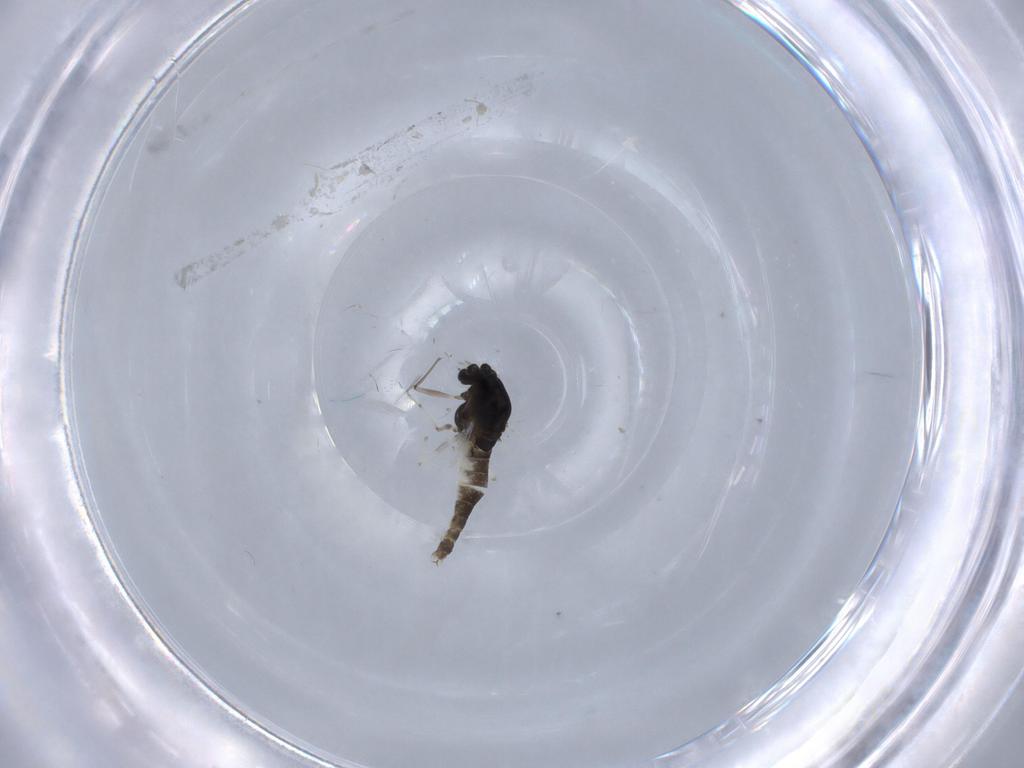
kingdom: Animalia
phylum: Arthropoda
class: Insecta
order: Diptera
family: Chironomidae
